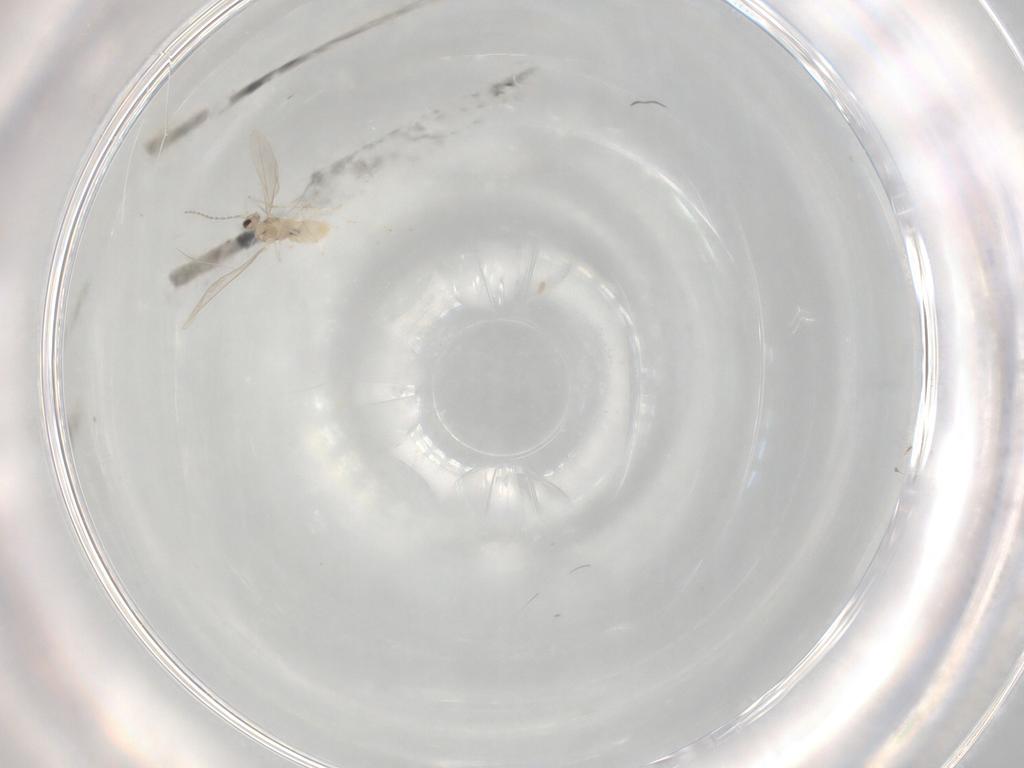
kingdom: Animalia
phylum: Arthropoda
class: Insecta
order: Diptera
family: Cecidomyiidae
